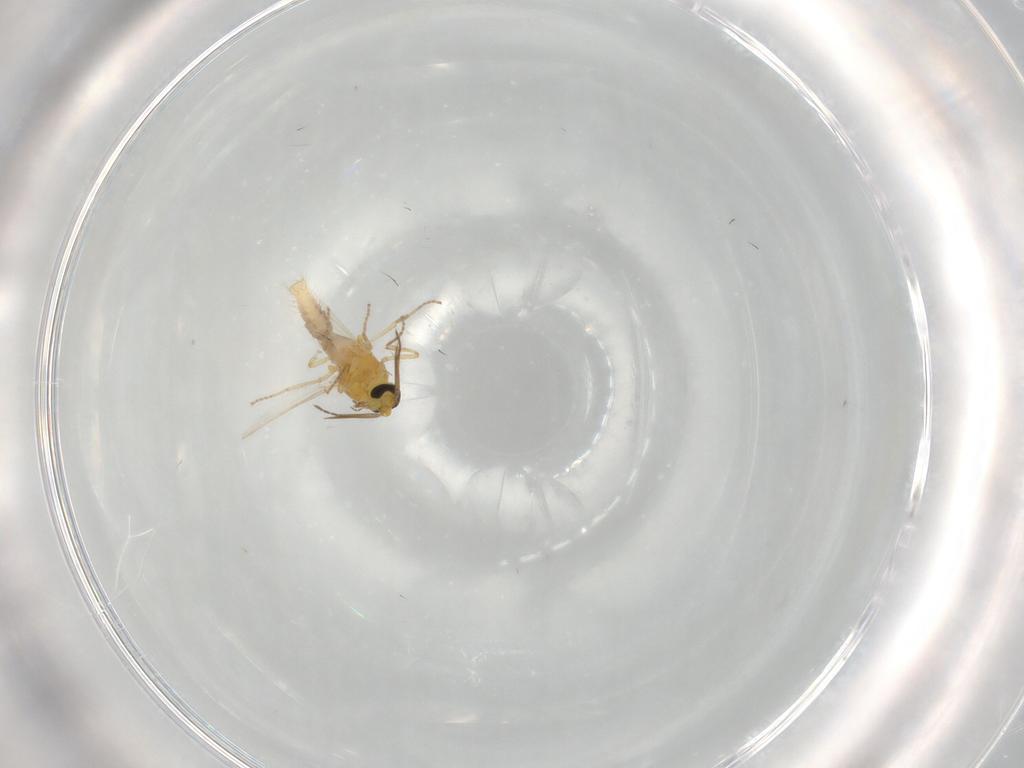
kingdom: Animalia
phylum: Arthropoda
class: Insecta
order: Diptera
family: Ceratopogonidae
